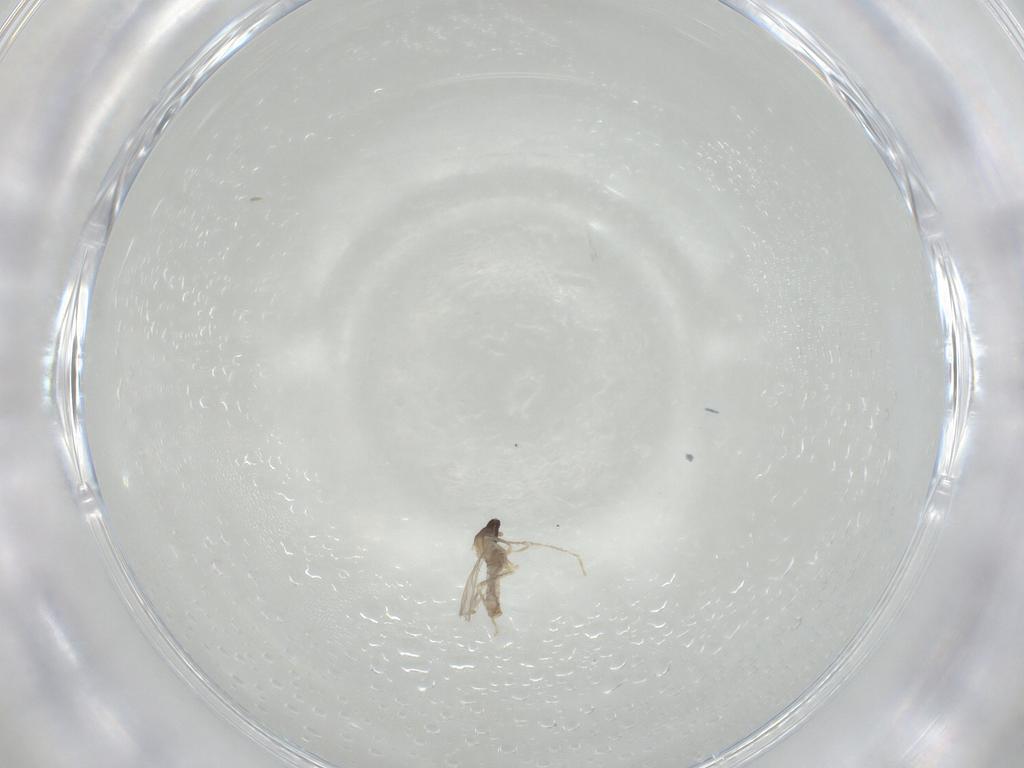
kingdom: Animalia
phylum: Arthropoda
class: Insecta
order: Diptera
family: Cecidomyiidae
